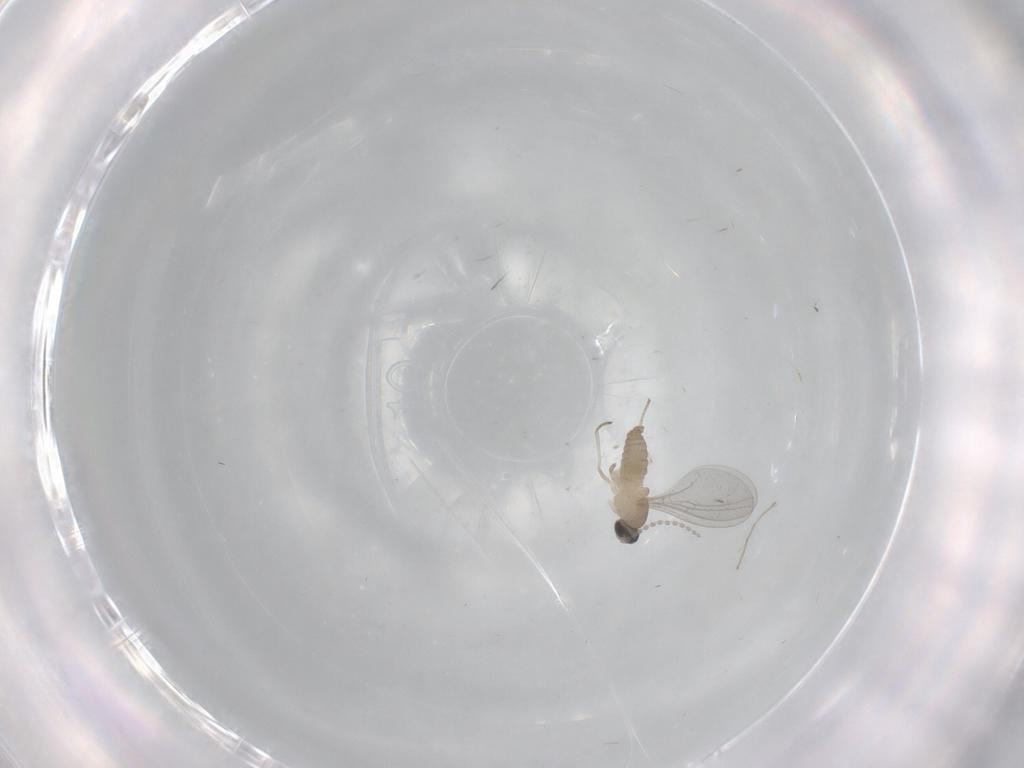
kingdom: Animalia
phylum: Arthropoda
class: Insecta
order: Diptera
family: Cecidomyiidae
